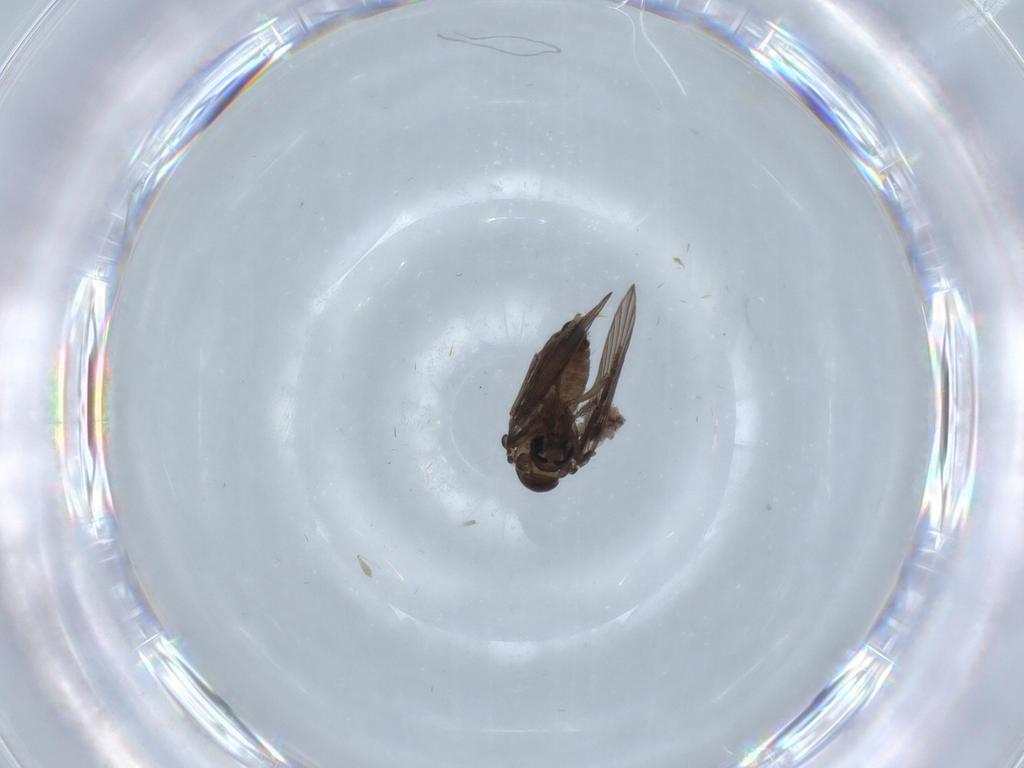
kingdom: Animalia
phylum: Arthropoda
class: Insecta
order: Diptera
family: Psychodidae
